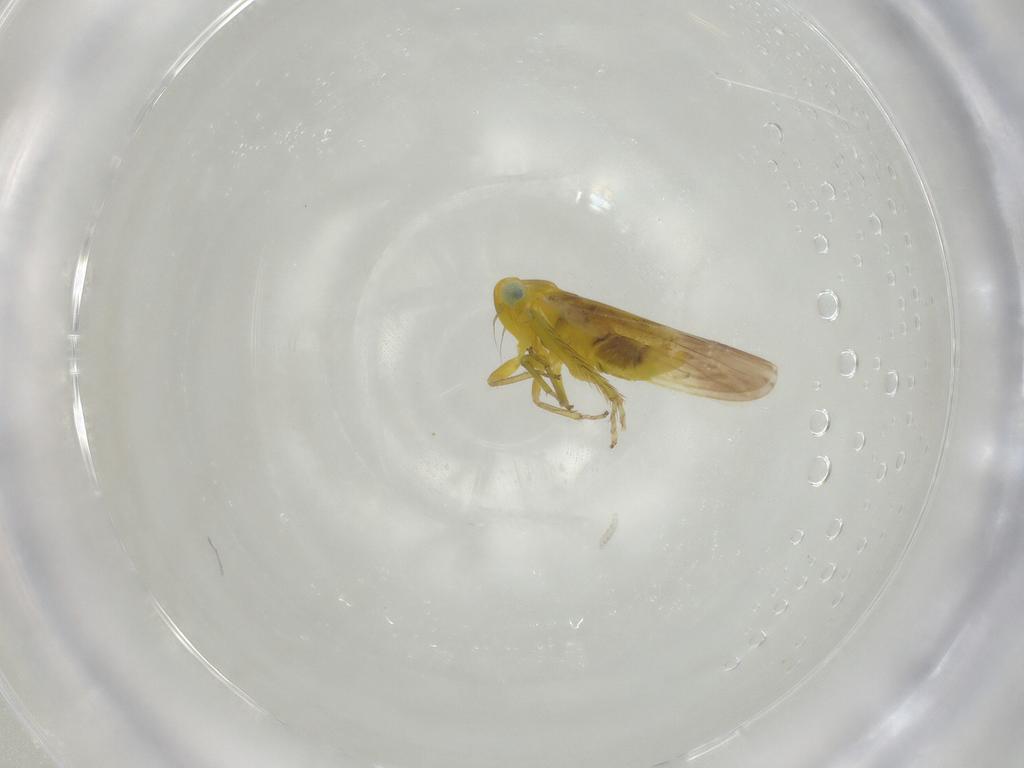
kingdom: Animalia
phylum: Arthropoda
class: Insecta
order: Hemiptera
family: Cicadellidae
